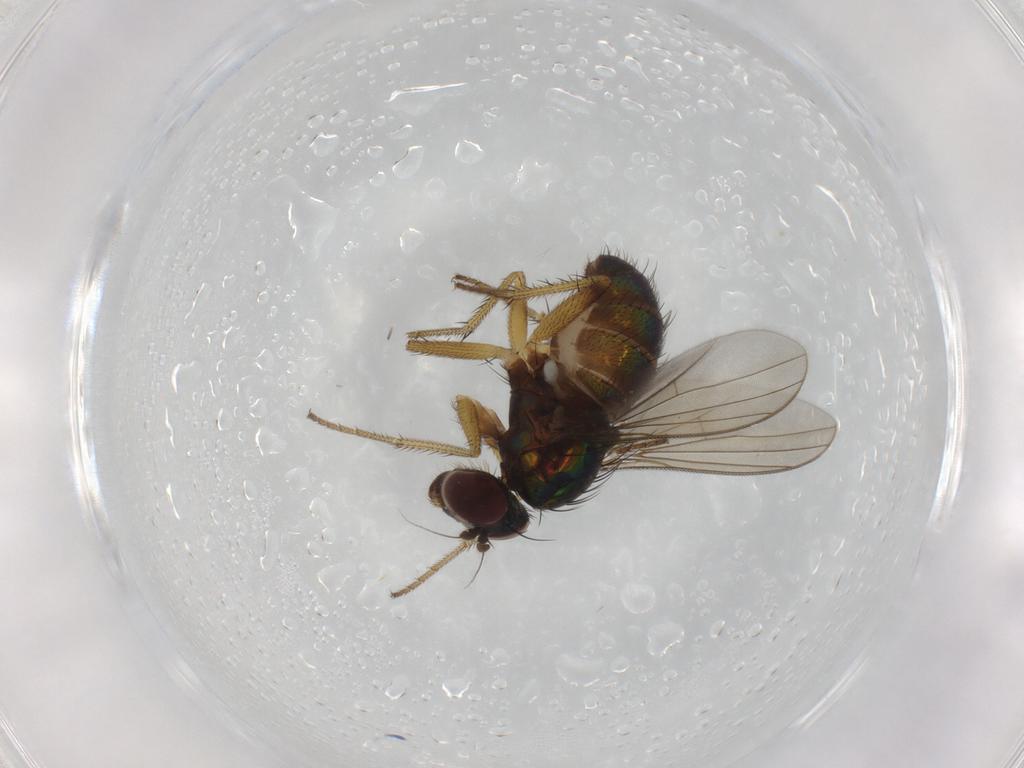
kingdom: Animalia
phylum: Arthropoda
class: Insecta
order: Diptera
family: Dolichopodidae
